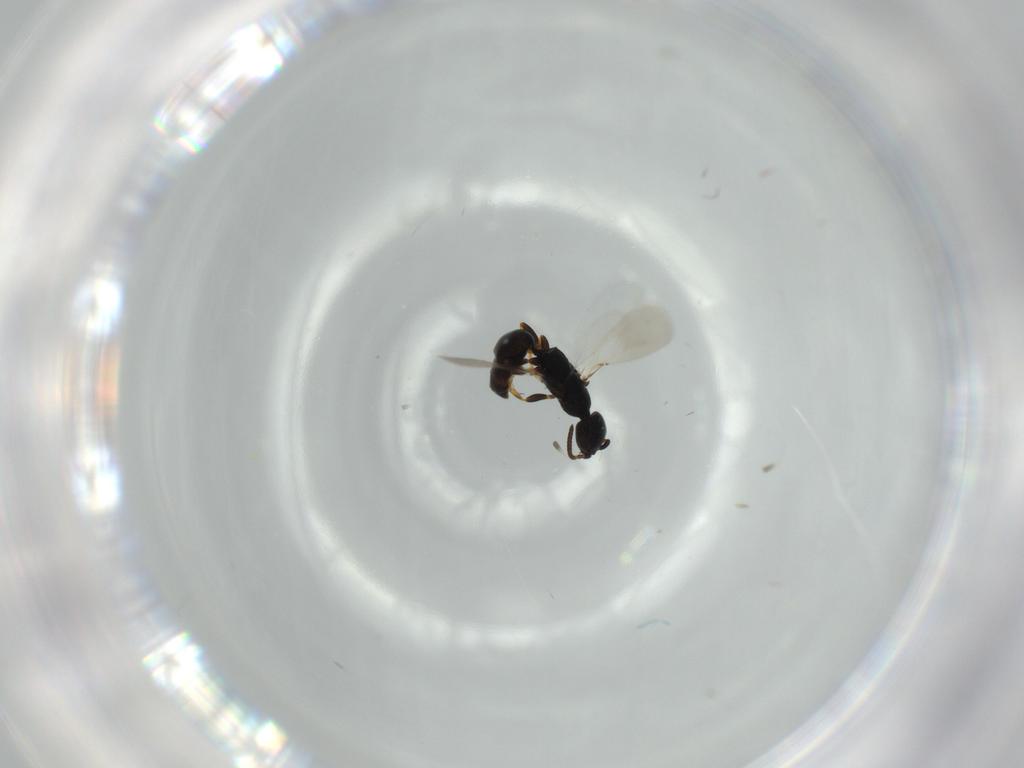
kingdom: Animalia
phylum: Arthropoda
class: Insecta
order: Hymenoptera
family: Bethylidae
